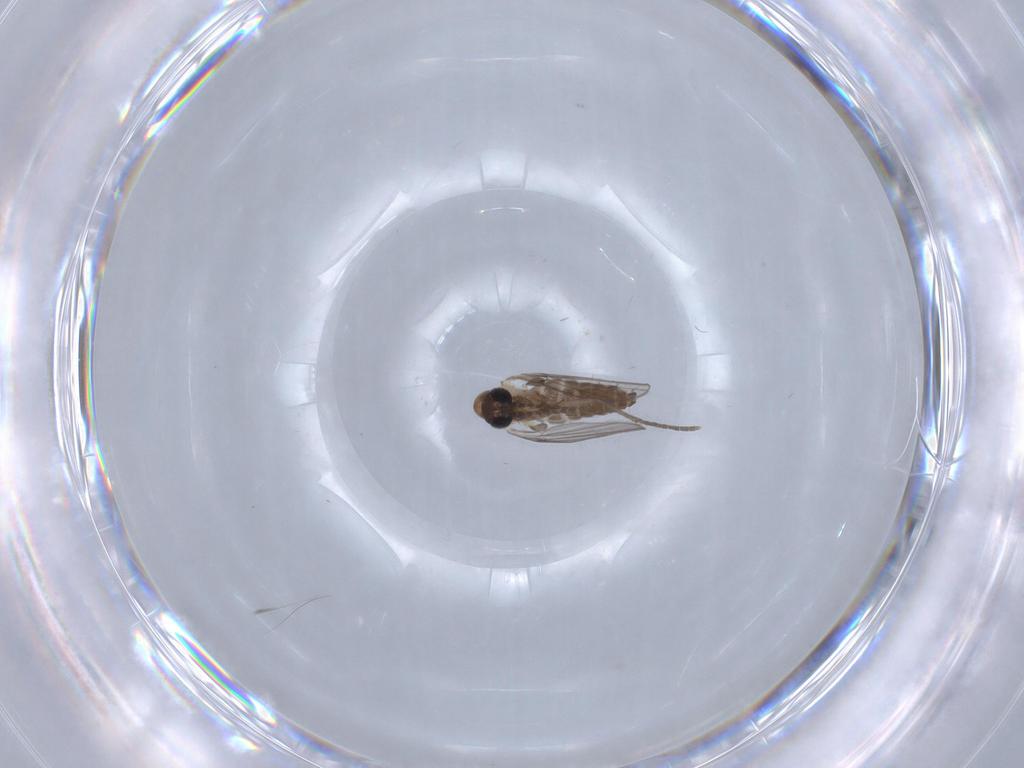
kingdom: Animalia
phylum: Arthropoda
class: Insecta
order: Diptera
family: Psychodidae
